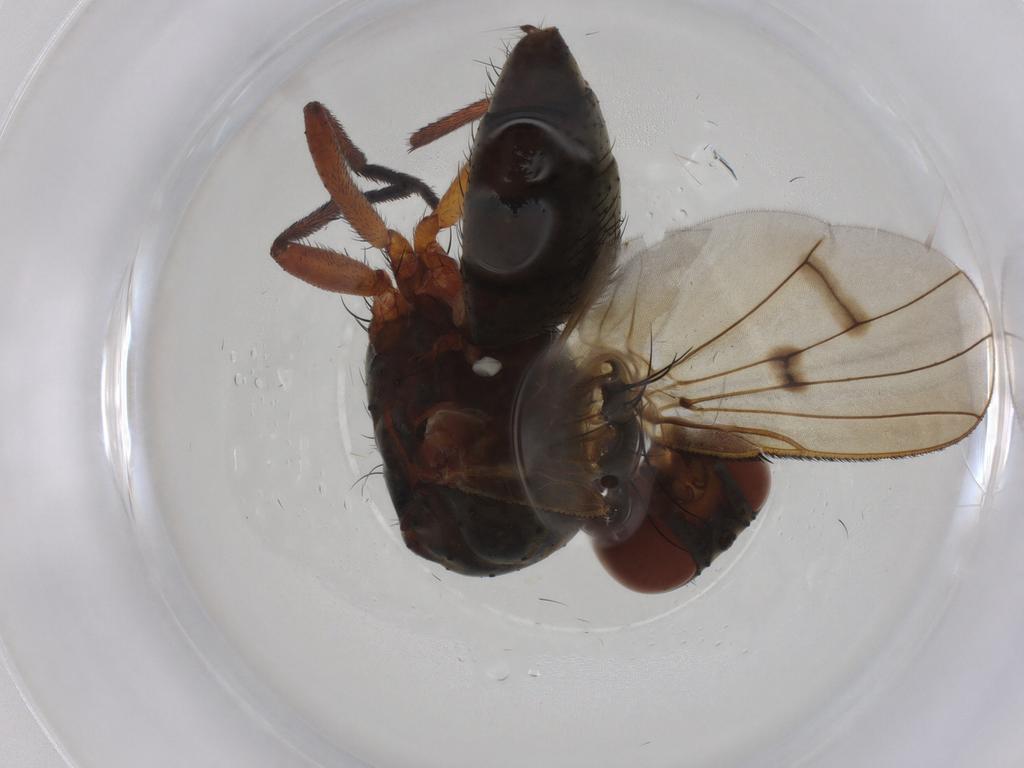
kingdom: Animalia
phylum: Arthropoda
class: Insecta
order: Diptera
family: Anthomyiidae
